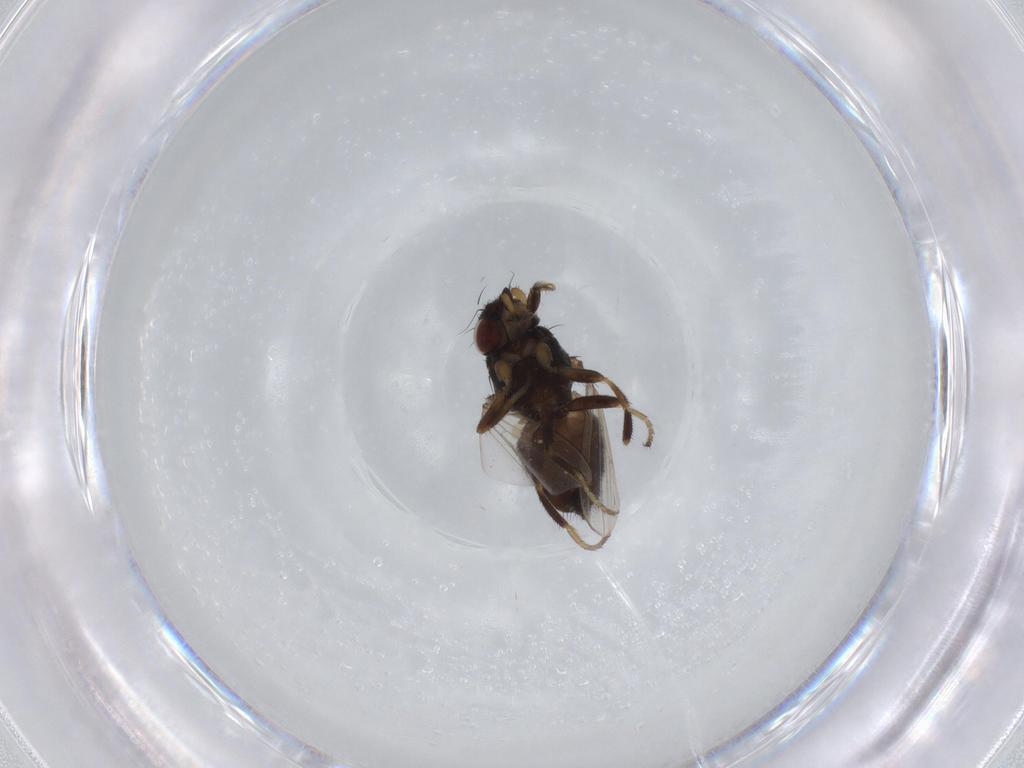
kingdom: Animalia
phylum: Arthropoda
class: Insecta
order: Diptera
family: Milichiidae
